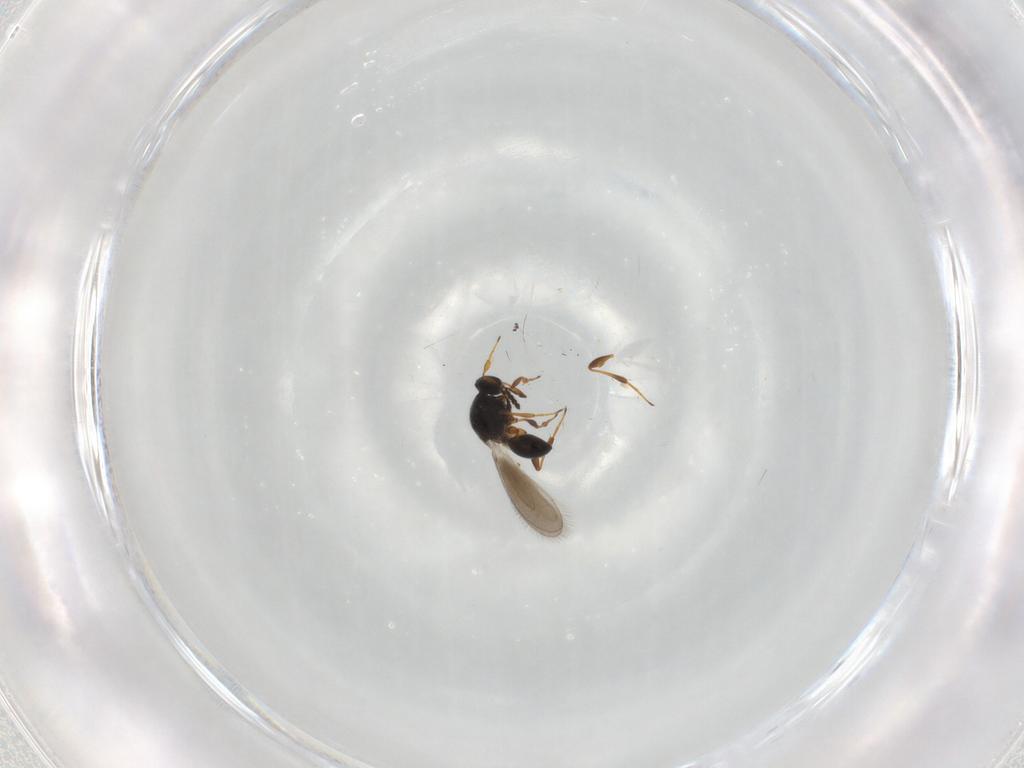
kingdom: Animalia
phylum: Arthropoda
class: Insecta
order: Hymenoptera
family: Platygastridae
